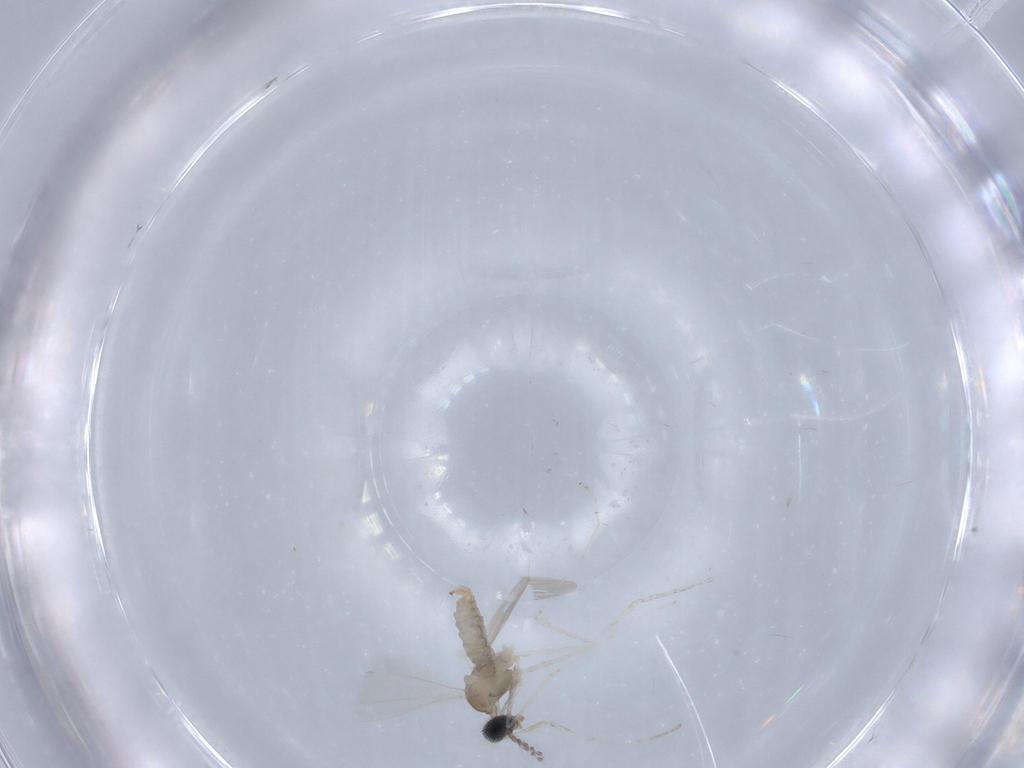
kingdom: Animalia
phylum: Arthropoda
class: Insecta
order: Diptera
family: Cecidomyiidae
